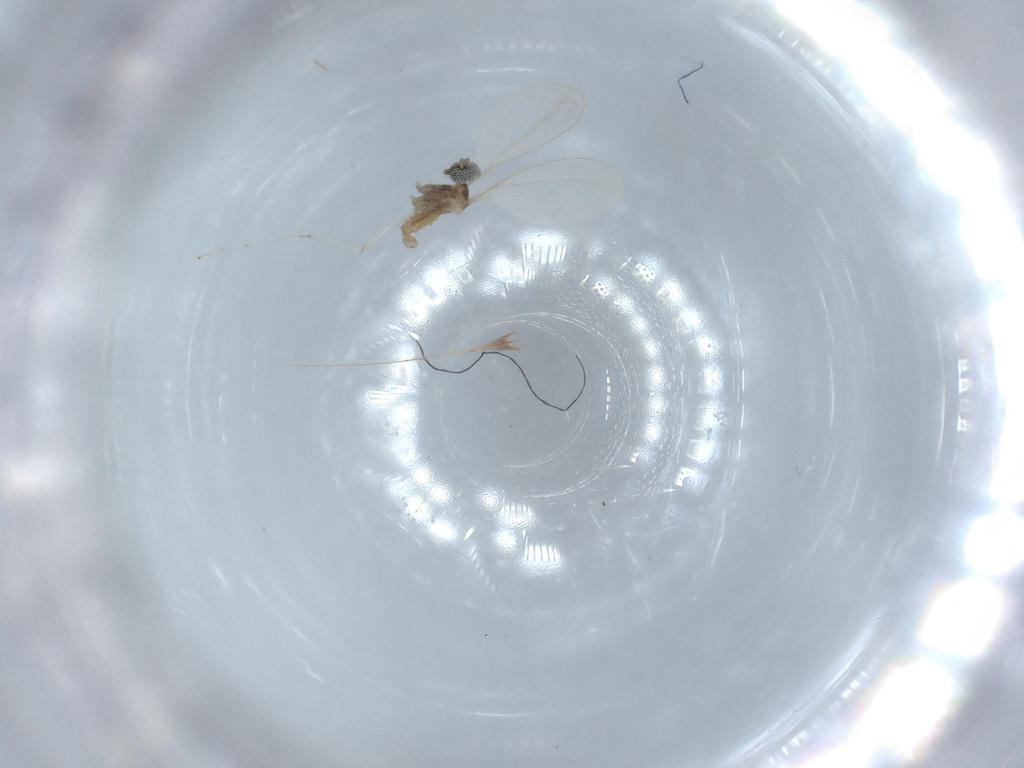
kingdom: Animalia
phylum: Arthropoda
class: Insecta
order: Diptera
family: Cecidomyiidae
